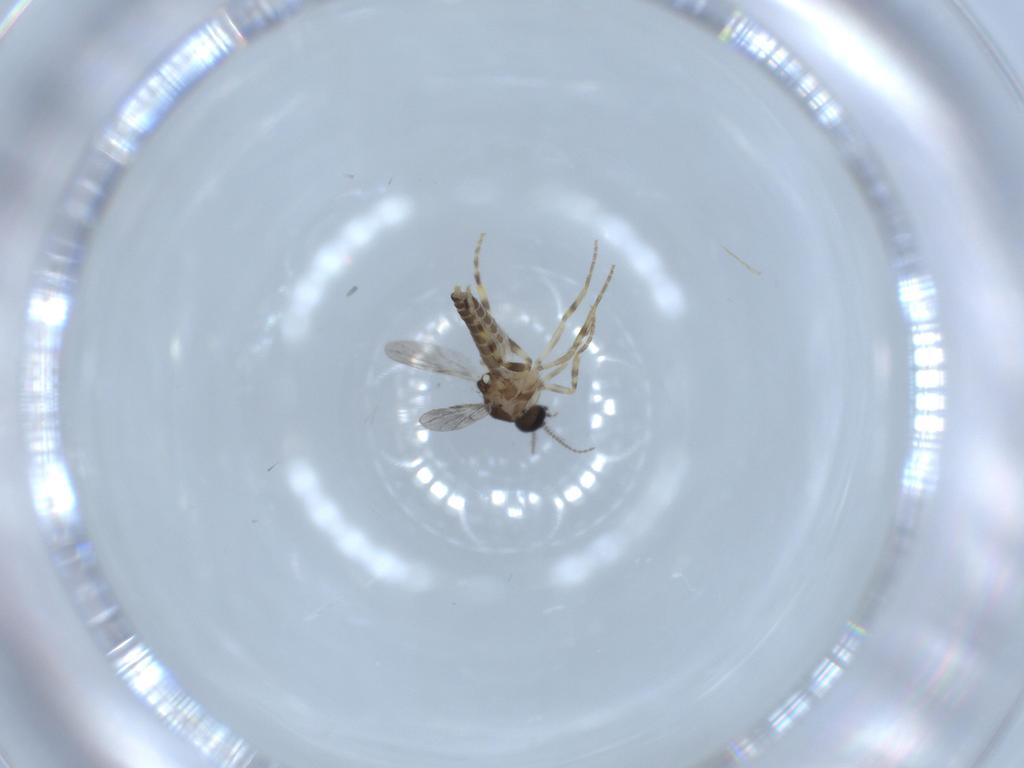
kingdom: Animalia
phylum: Arthropoda
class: Insecta
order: Diptera
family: Ceratopogonidae
